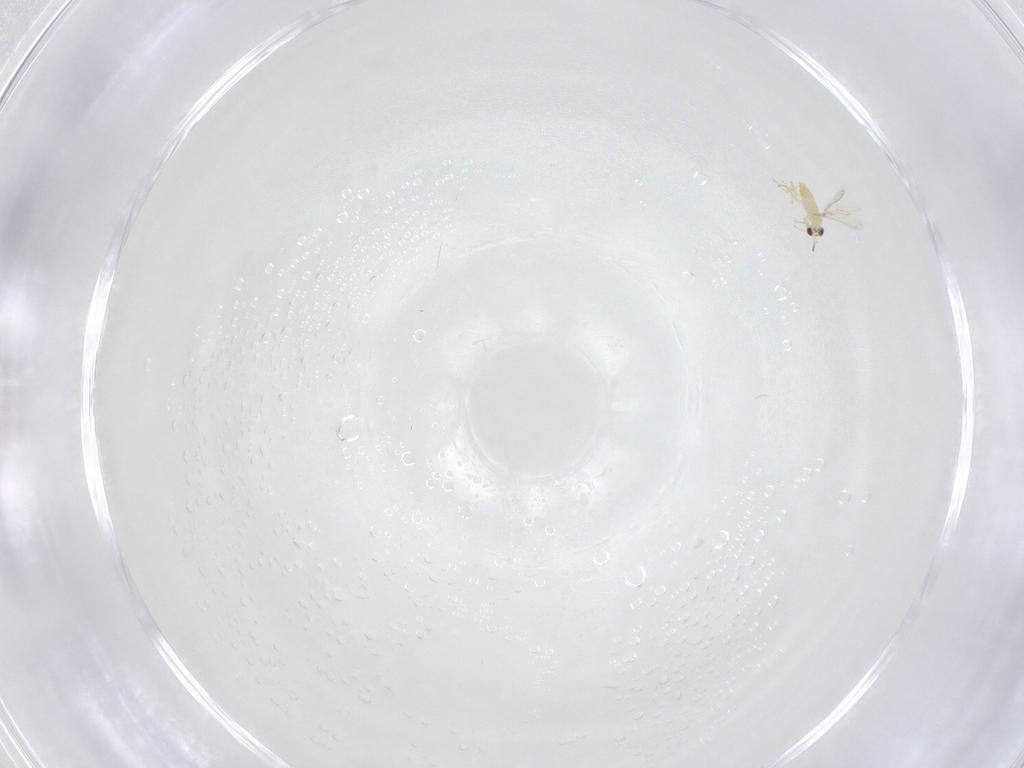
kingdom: Animalia
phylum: Arthropoda
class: Insecta
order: Hymenoptera
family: Mymaridae
